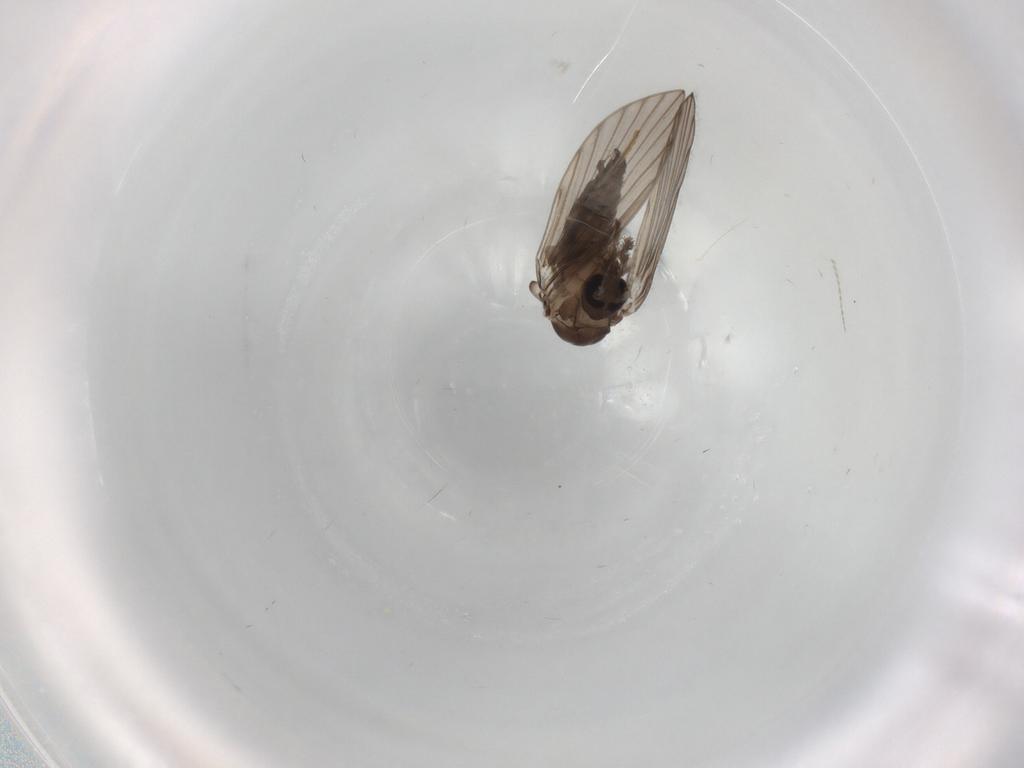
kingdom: Animalia
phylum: Arthropoda
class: Insecta
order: Diptera
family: Psychodidae
